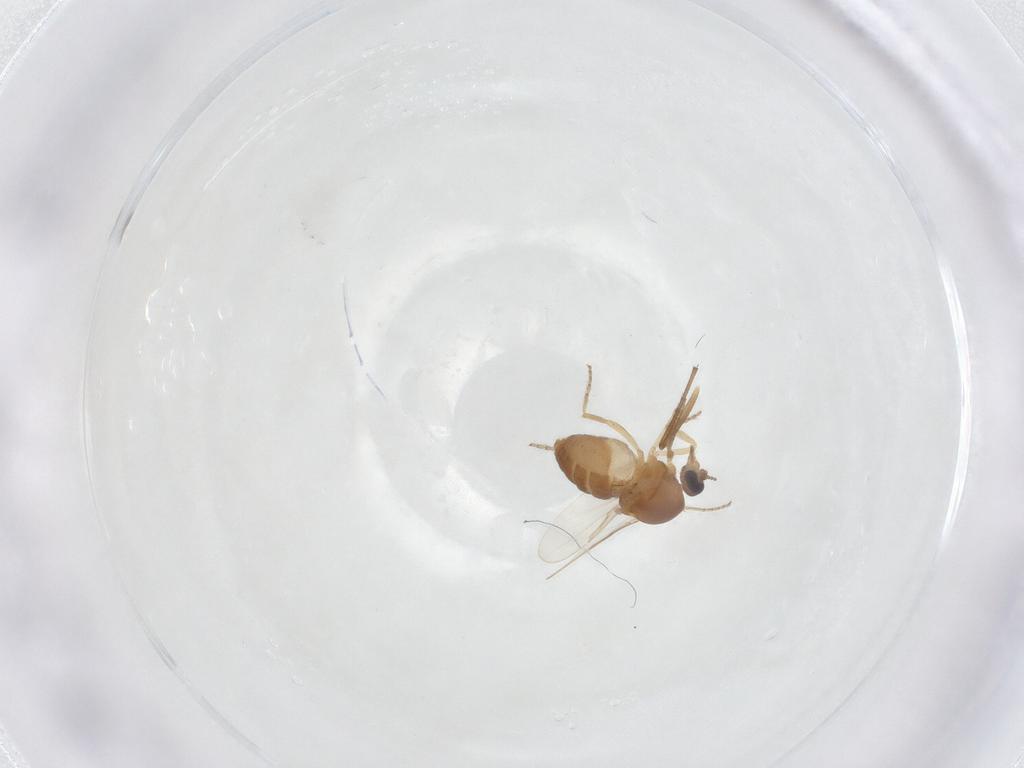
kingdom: Animalia
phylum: Arthropoda
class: Insecta
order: Diptera
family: Ceratopogonidae
